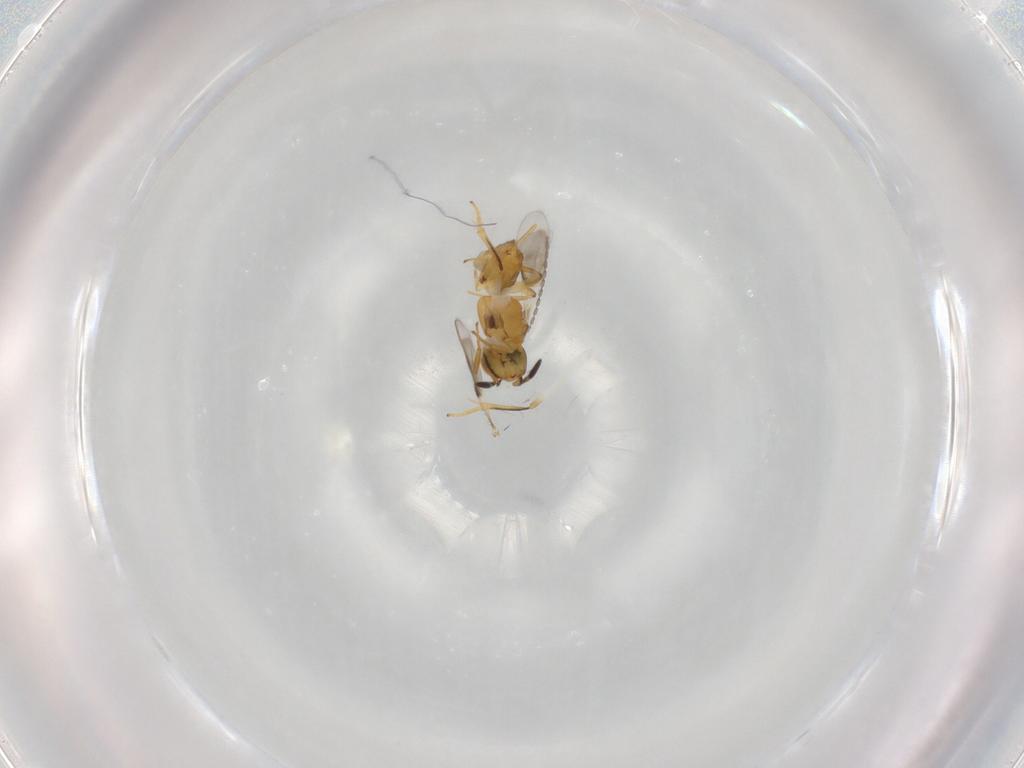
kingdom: Animalia
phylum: Arthropoda
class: Insecta
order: Hymenoptera
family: Encyrtidae
